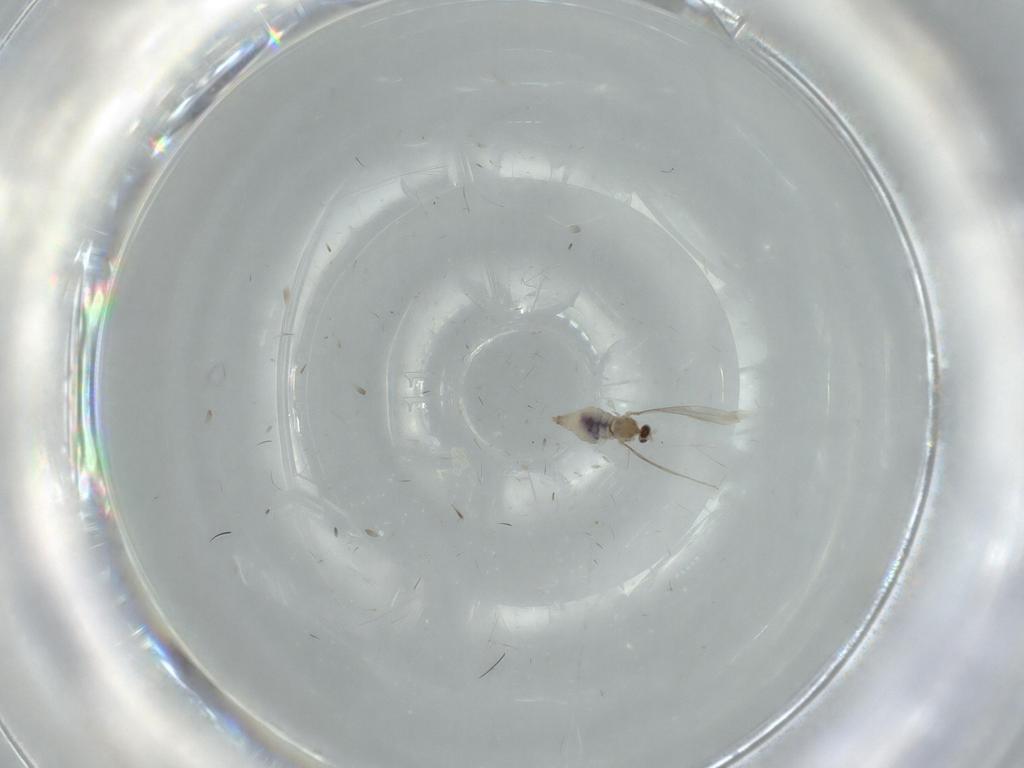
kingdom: Animalia
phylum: Arthropoda
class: Insecta
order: Diptera
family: Cecidomyiidae
